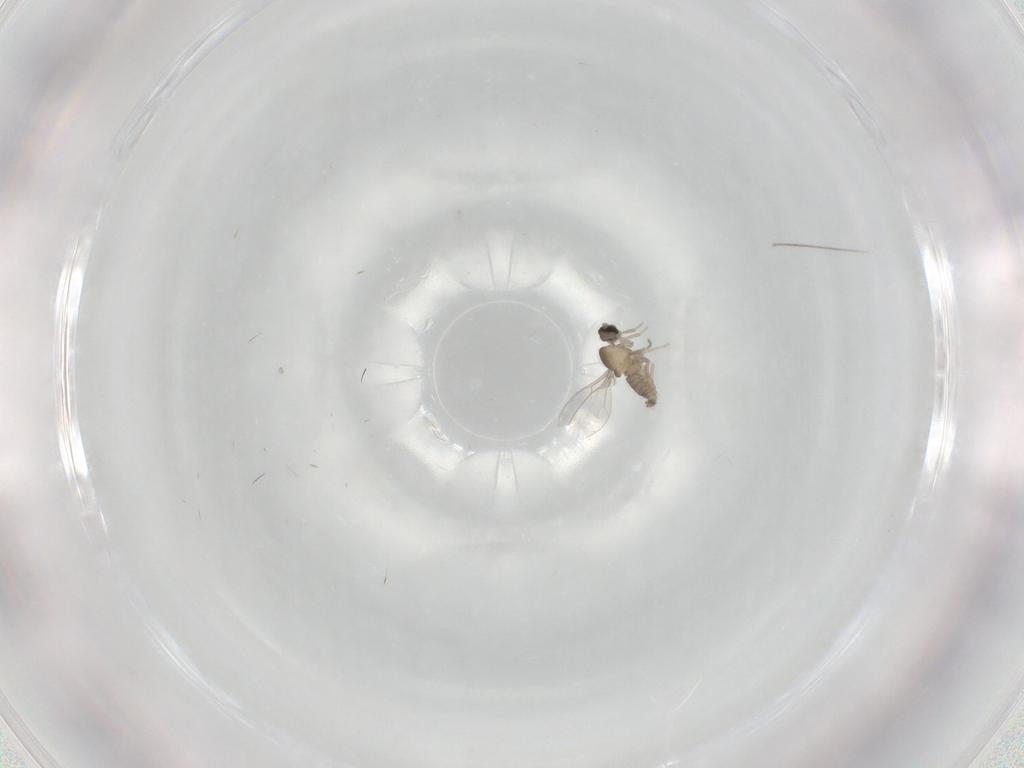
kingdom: Animalia
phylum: Arthropoda
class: Insecta
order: Diptera
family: Cecidomyiidae
